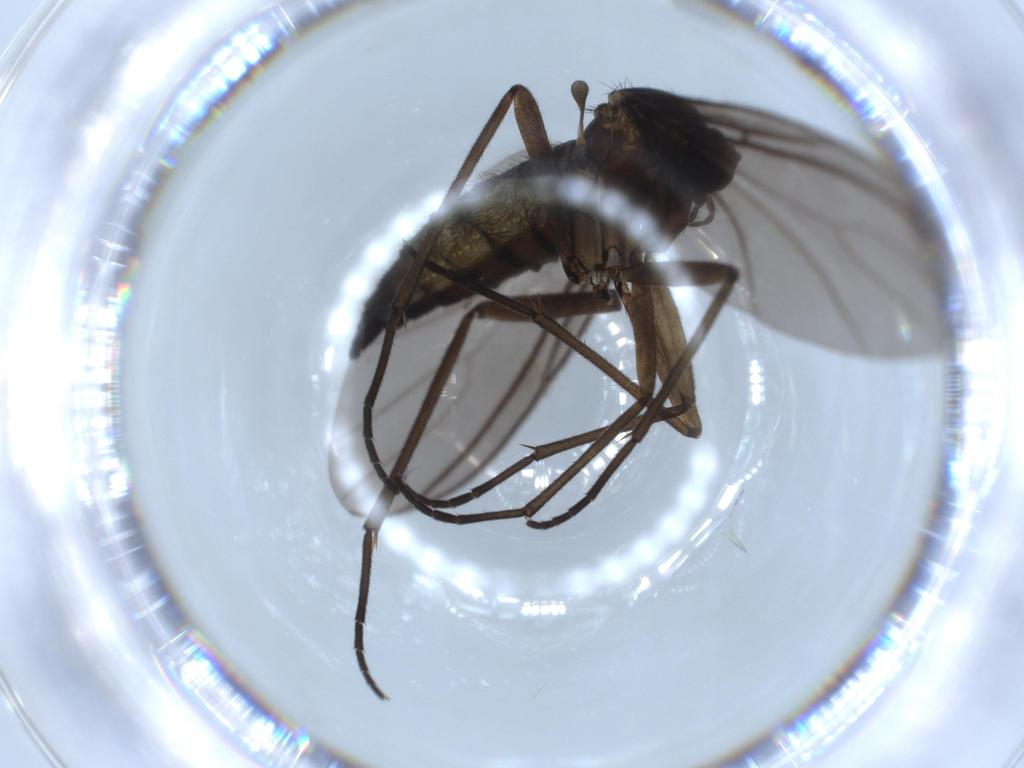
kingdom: Animalia
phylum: Arthropoda
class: Insecta
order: Diptera
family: Sciaridae
